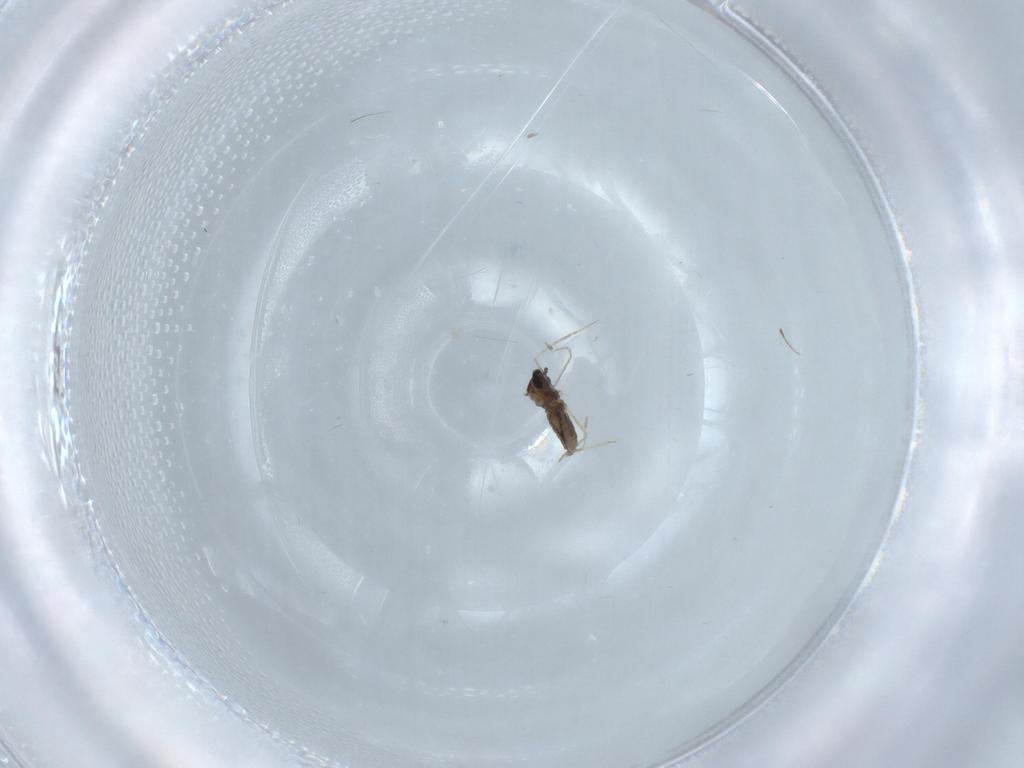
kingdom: Animalia
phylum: Arthropoda
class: Insecta
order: Diptera
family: Cecidomyiidae
